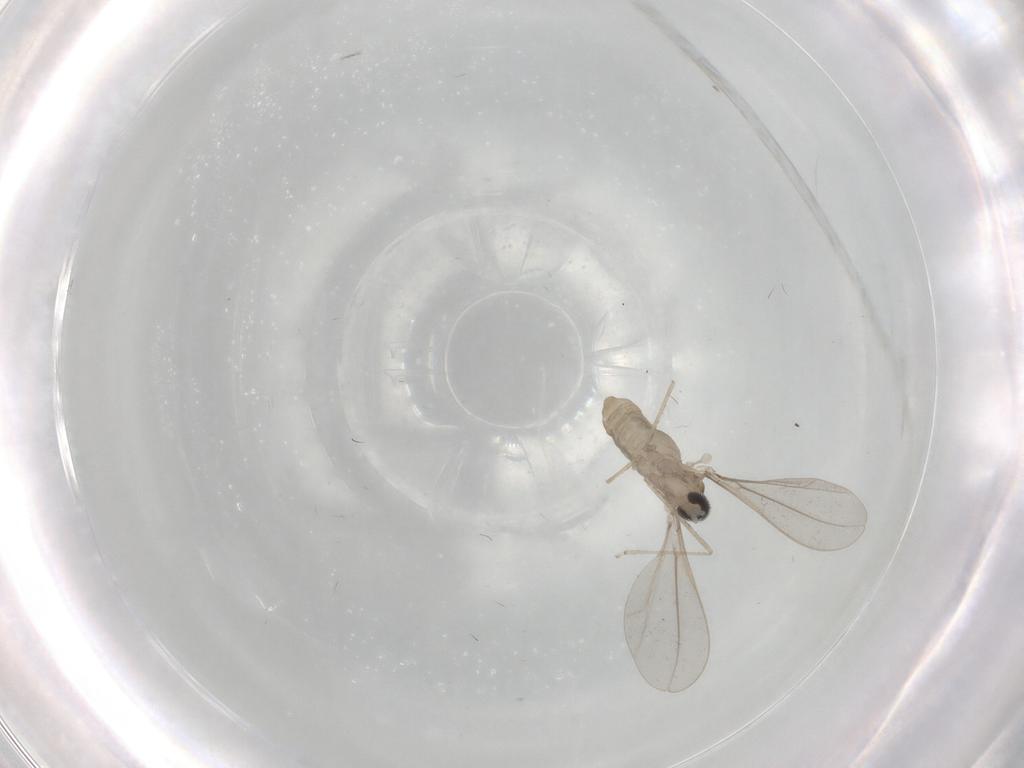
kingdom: Animalia
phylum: Arthropoda
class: Insecta
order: Diptera
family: Cecidomyiidae
